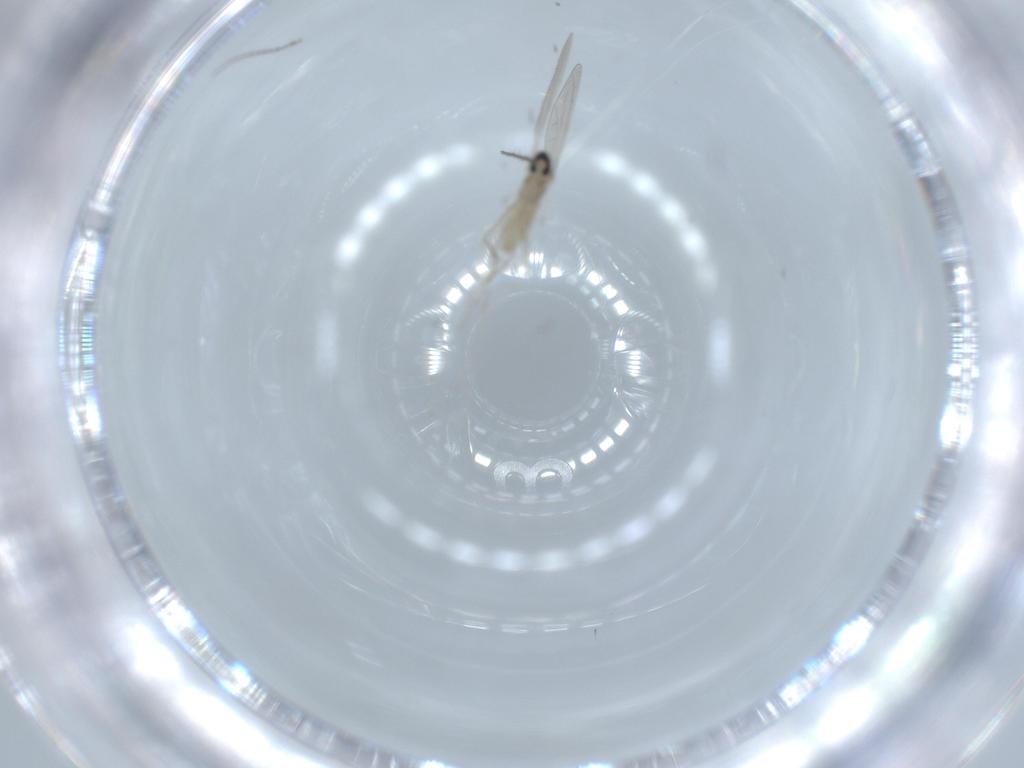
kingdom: Animalia
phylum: Arthropoda
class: Insecta
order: Diptera
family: Cecidomyiidae
